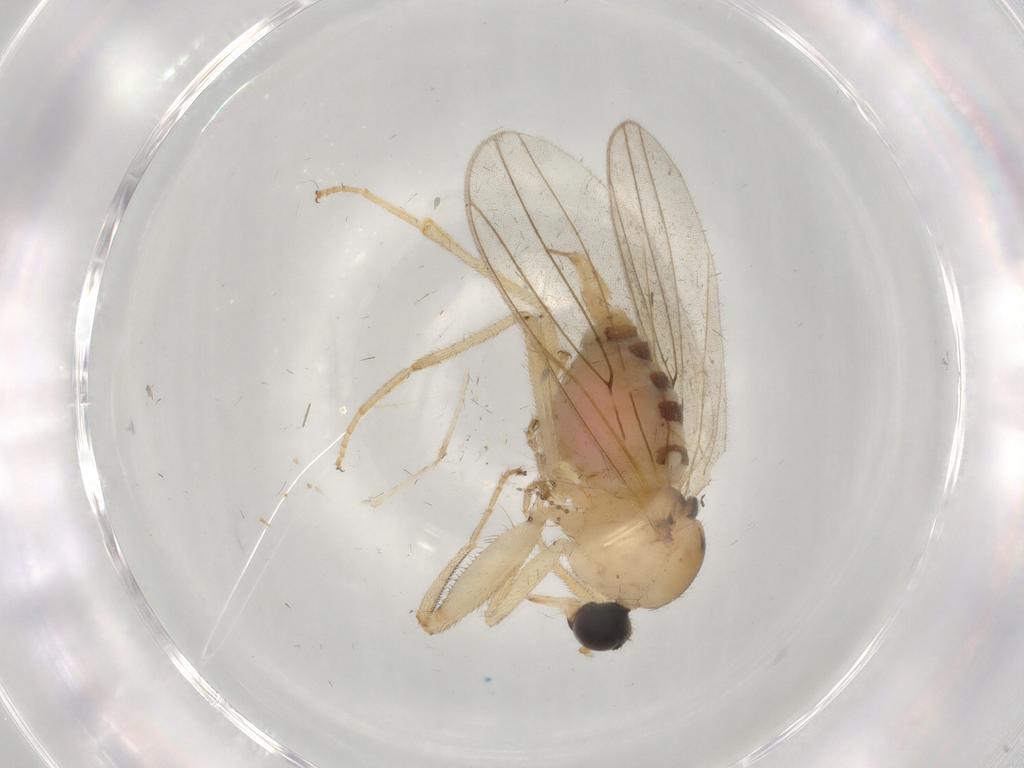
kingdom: Animalia
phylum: Arthropoda
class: Insecta
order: Diptera
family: Hybotidae
